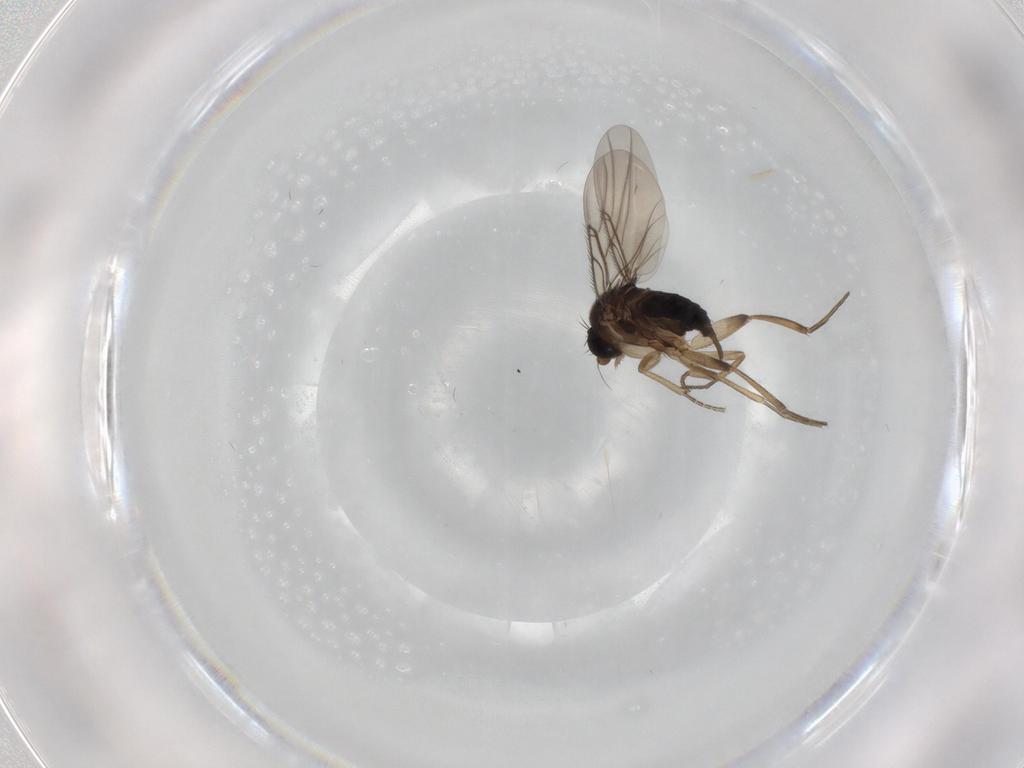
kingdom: Animalia
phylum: Arthropoda
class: Insecta
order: Diptera
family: Phoridae
